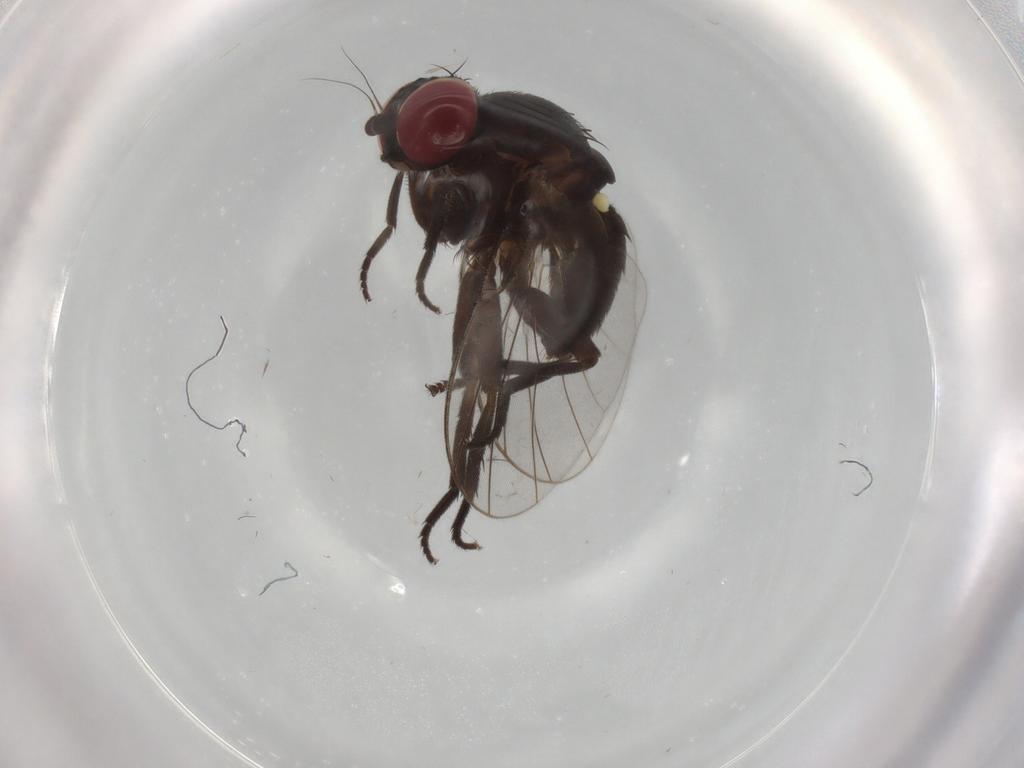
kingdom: Animalia
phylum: Arthropoda
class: Insecta
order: Diptera
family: Agromyzidae
